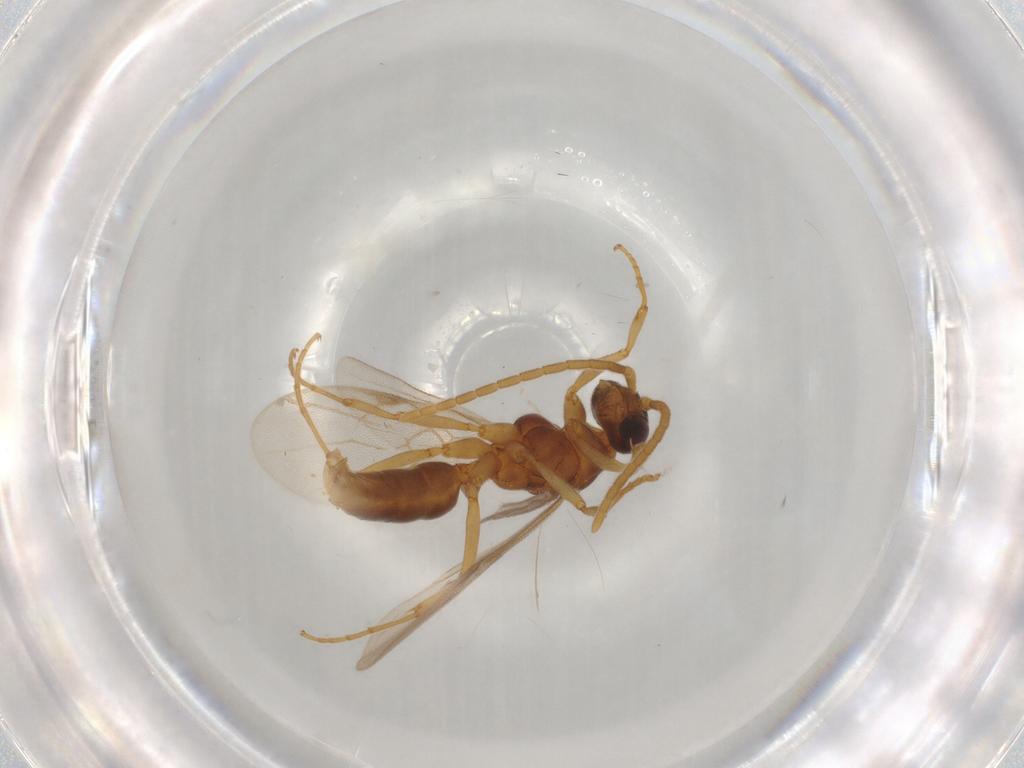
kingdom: Animalia
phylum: Arthropoda
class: Insecta
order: Hymenoptera
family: Formicidae
